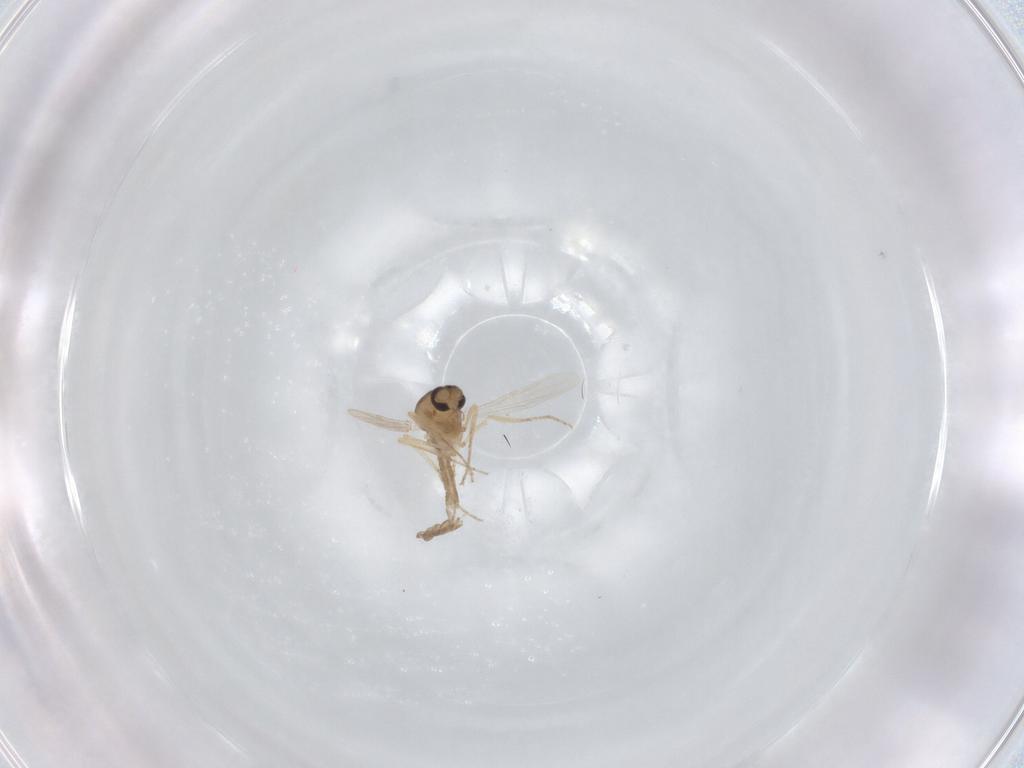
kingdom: Animalia
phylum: Arthropoda
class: Insecta
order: Diptera
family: Ceratopogonidae
